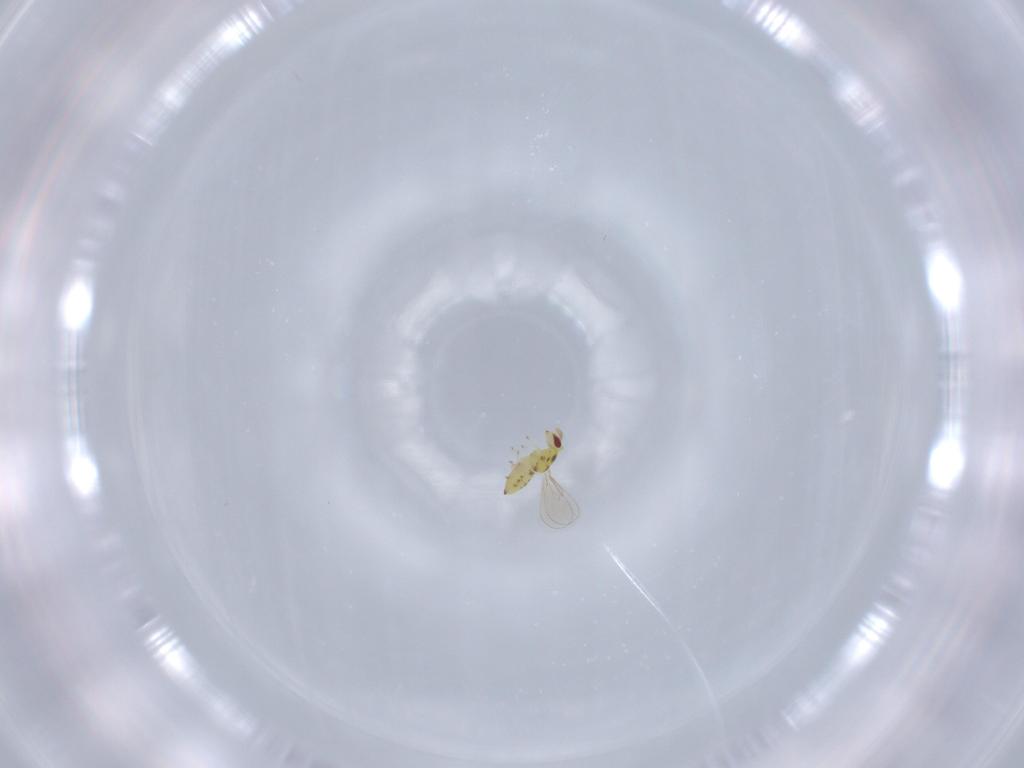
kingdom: Animalia
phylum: Arthropoda
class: Insecta
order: Hymenoptera
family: Eulophidae
